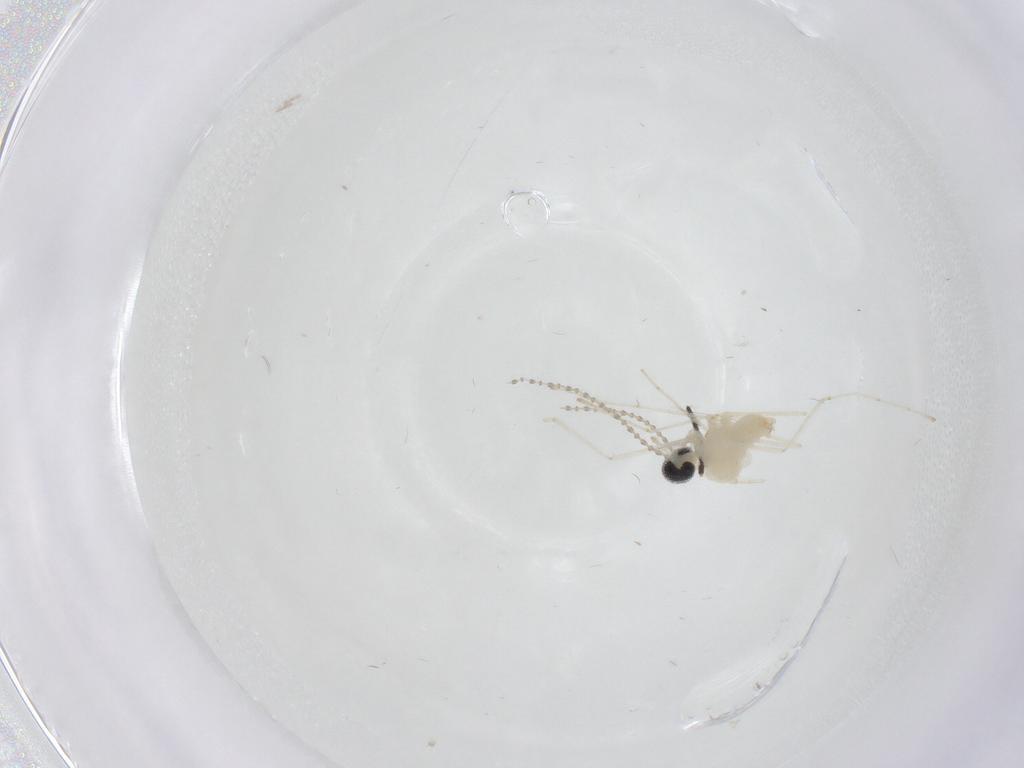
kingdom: Animalia
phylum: Arthropoda
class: Insecta
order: Diptera
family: Cecidomyiidae
